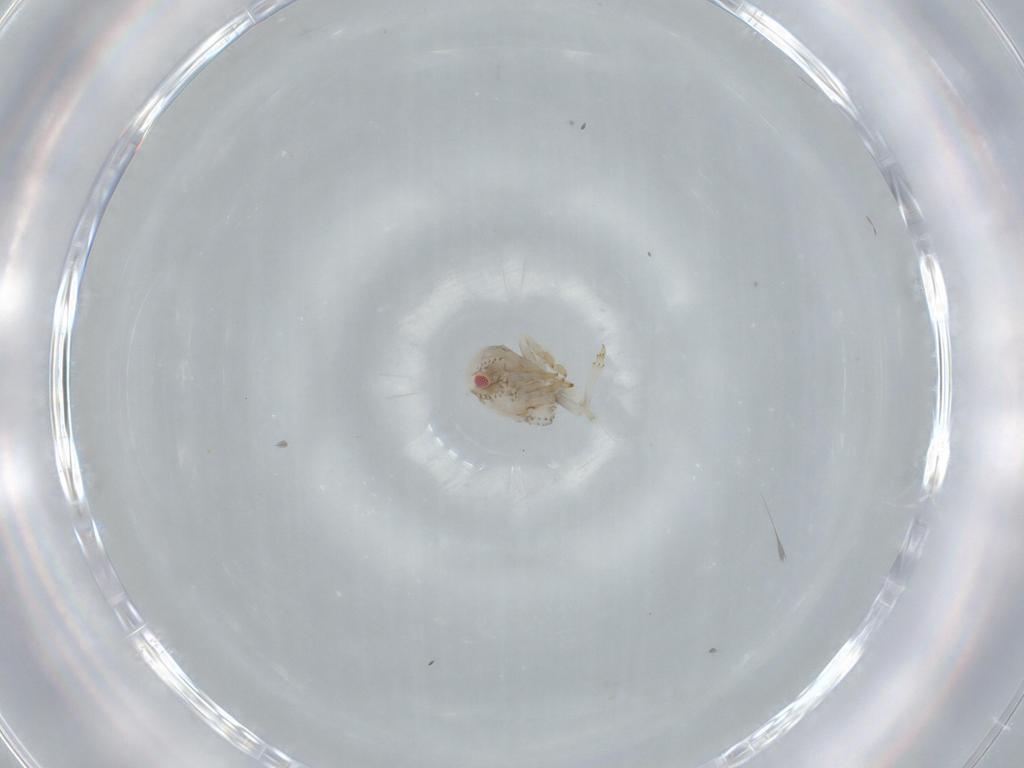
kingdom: Animalia
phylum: Arthropoda
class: Insecta
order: Hemiptera
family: Acanaloniidae
